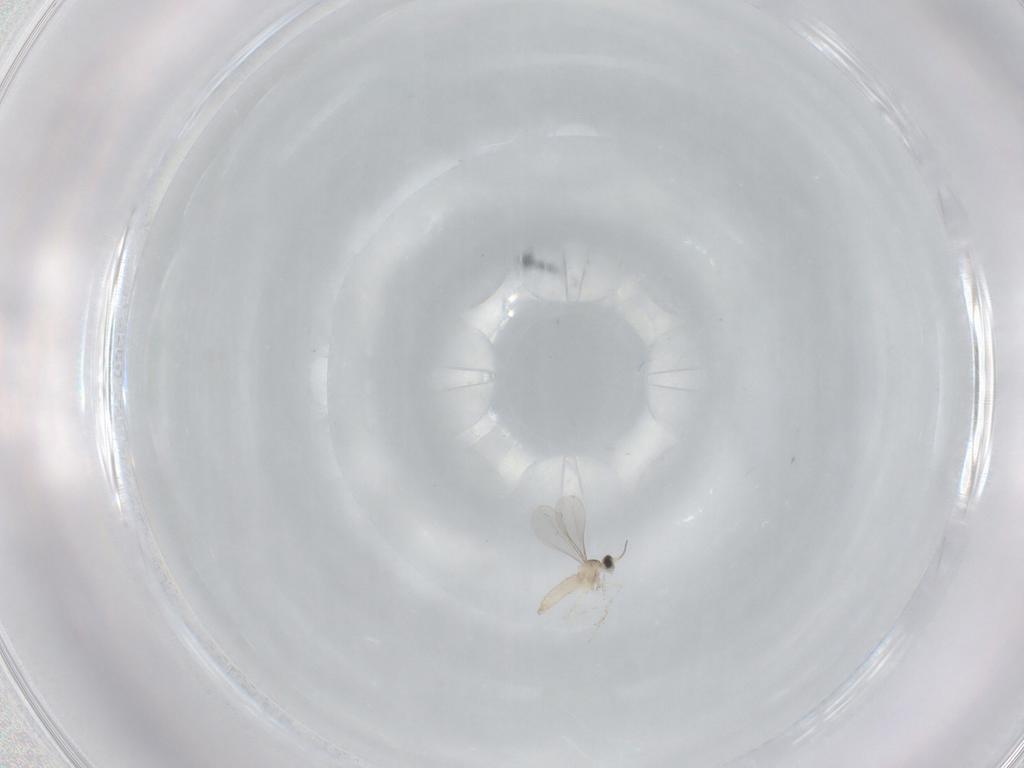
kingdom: Animalia
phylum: Arthropoda
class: Insecta
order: Diptera
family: Cecidomyiidae
